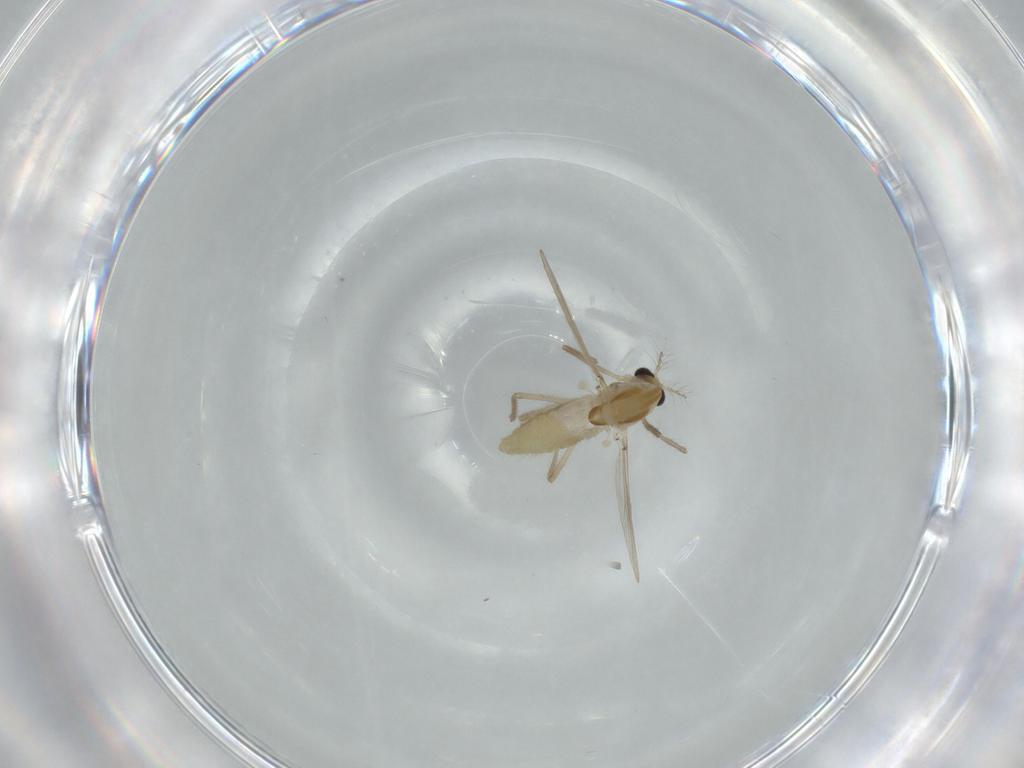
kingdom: Animalia
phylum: Arthropoda
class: Insecta
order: Diptera
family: Chironomidae
